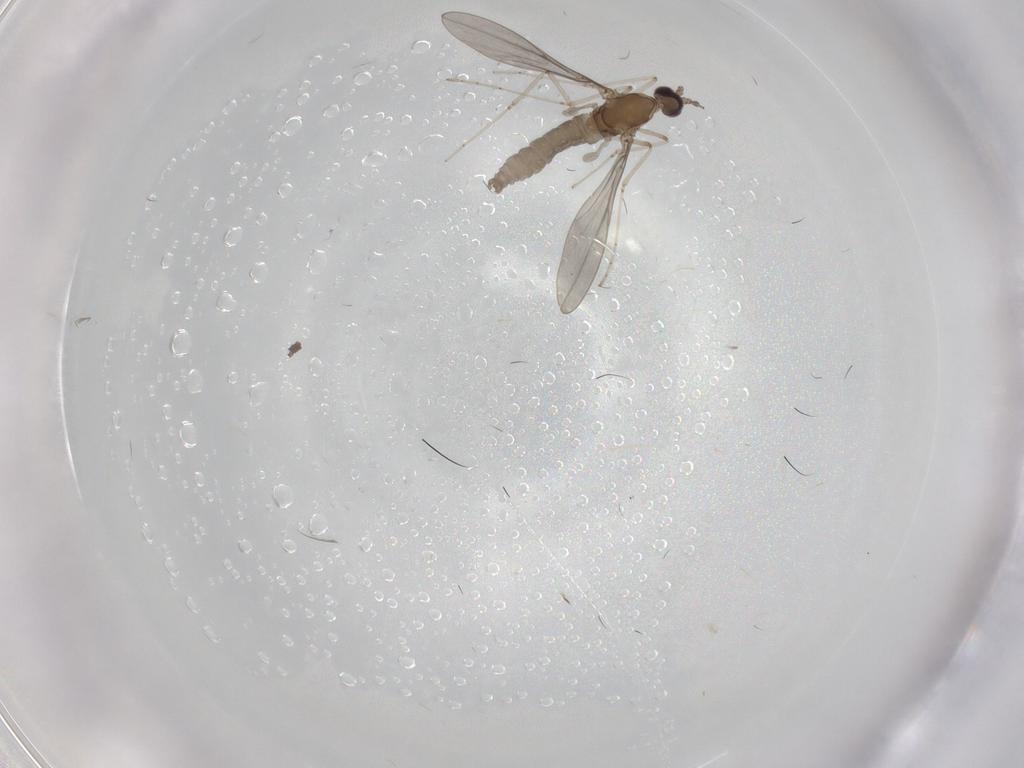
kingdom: Animalia
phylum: Arthropoda
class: Insecta
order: Diptera
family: Dolichopodidae
